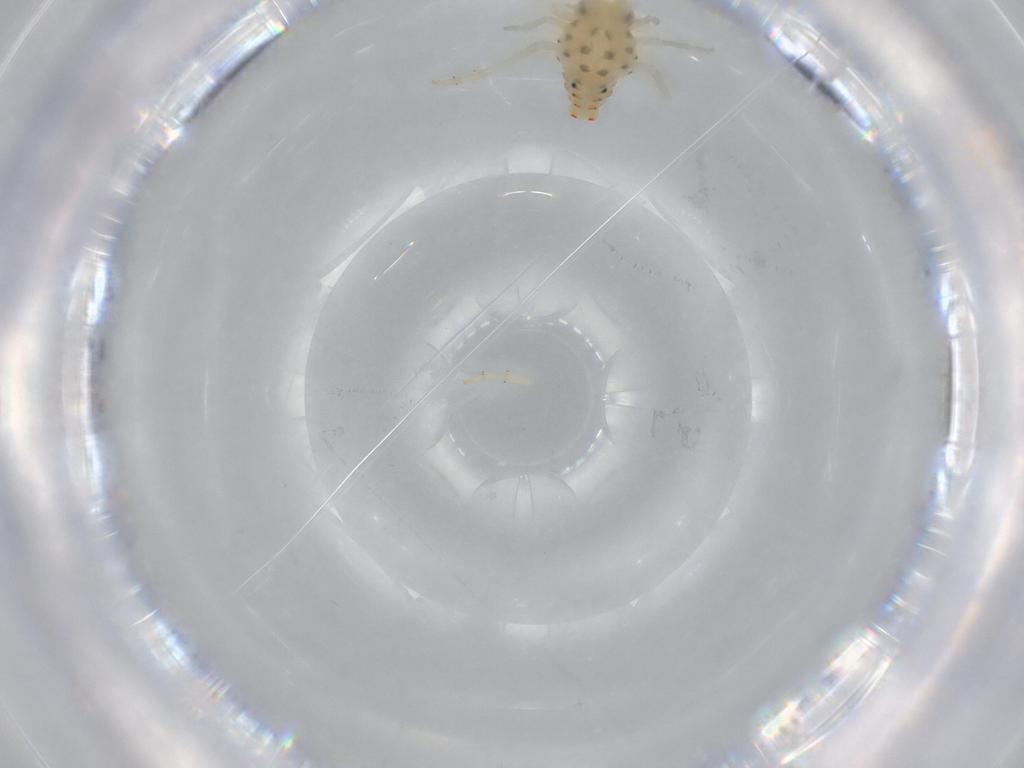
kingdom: Animalia
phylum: Arthropoda
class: Insecta
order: Hemiptera
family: Tropiduchidae
